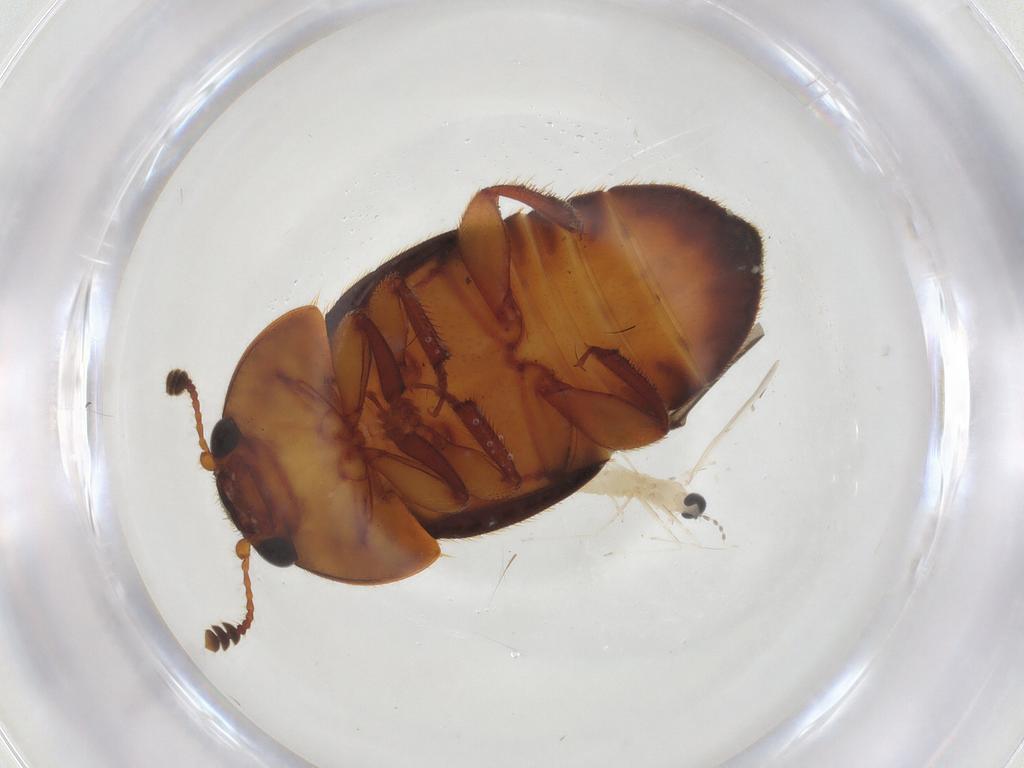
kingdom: Animalia
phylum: Arthropoda
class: Insecta
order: Diptera
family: Cecidomyiidae
